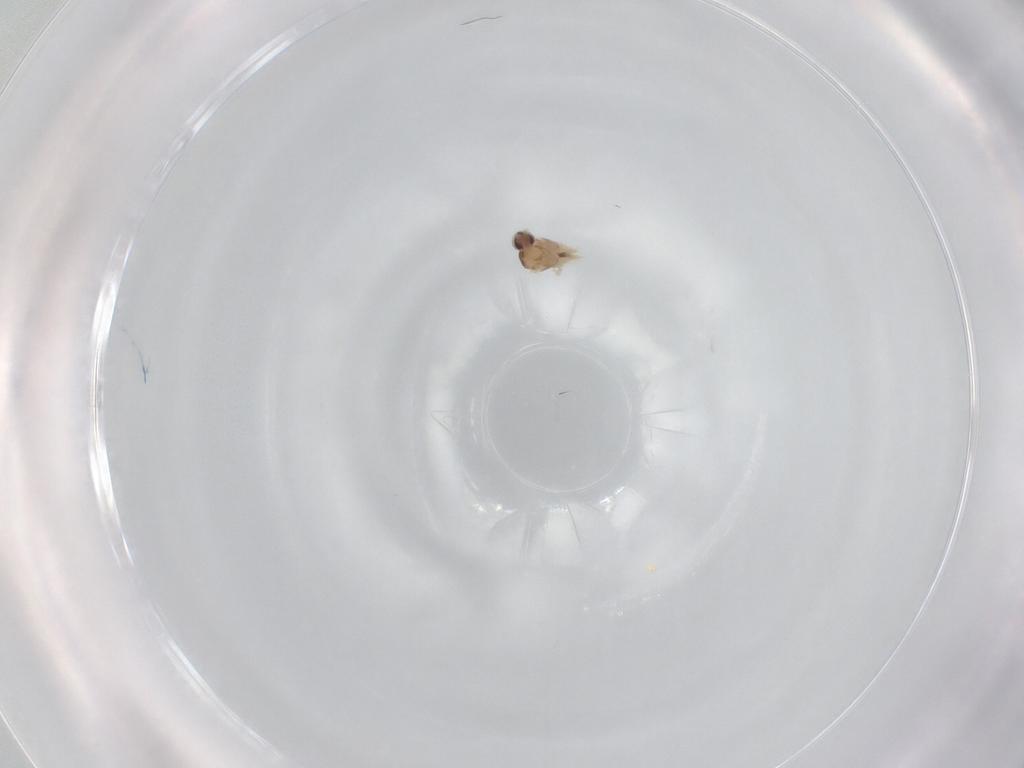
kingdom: Animalia
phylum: Arthropoda
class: Insecta
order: Diptera
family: Cecidomyiidae
